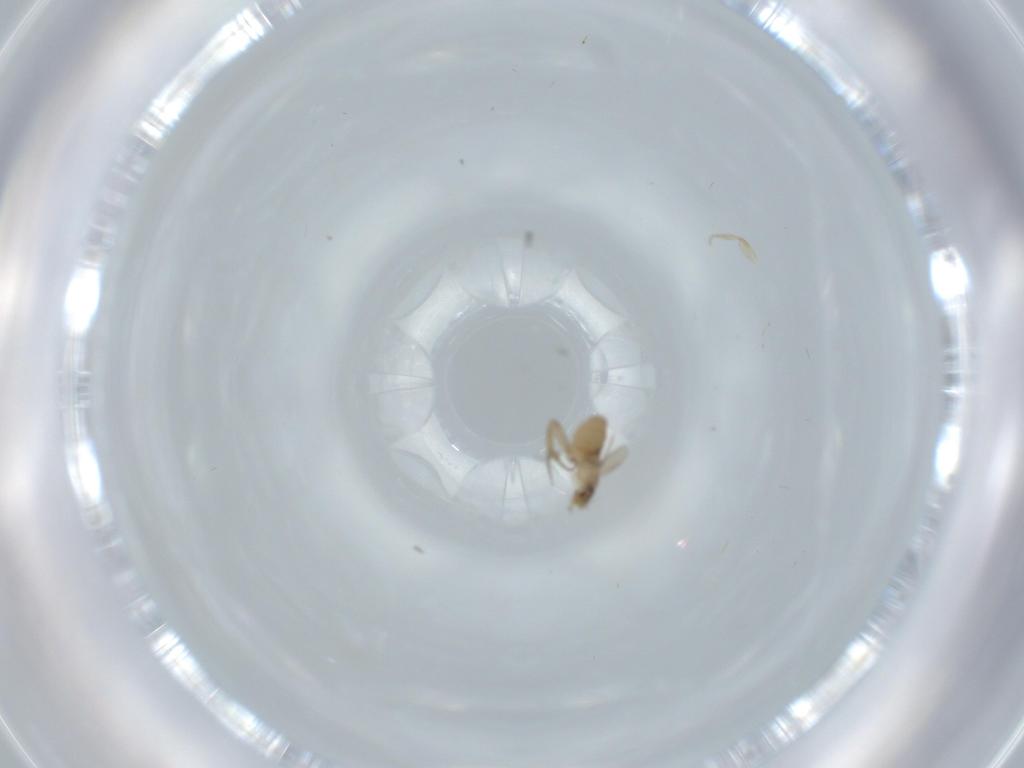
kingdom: Animalia
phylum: Arthropoda
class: Insecta
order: Diptera
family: Phoridae
